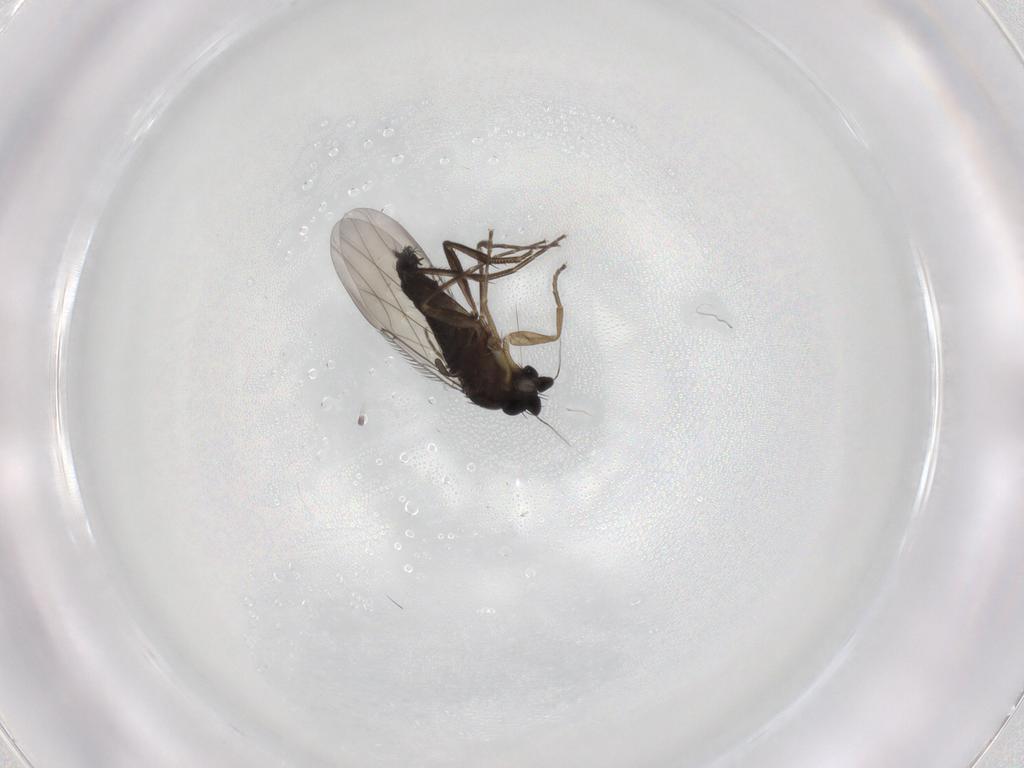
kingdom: Animalia
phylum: Arthropoda
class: Insecta
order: Diptera
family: Phoridae
